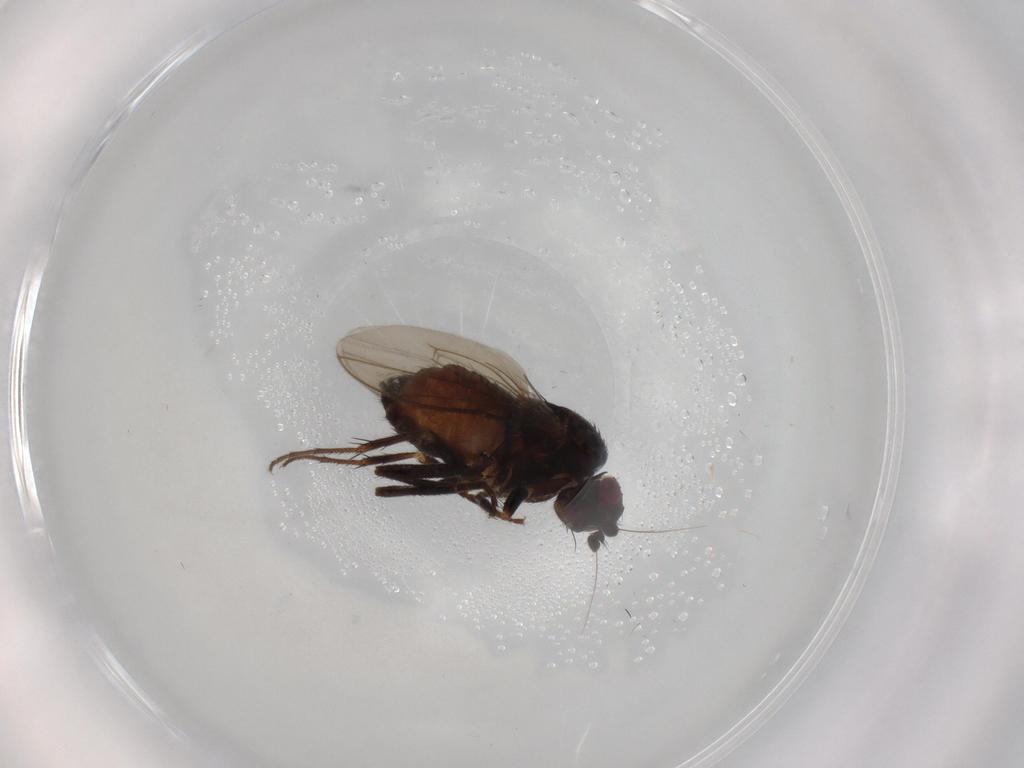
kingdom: Animalia
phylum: Arthropoda
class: Insecta
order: Diptera
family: Sphaeroceridae
